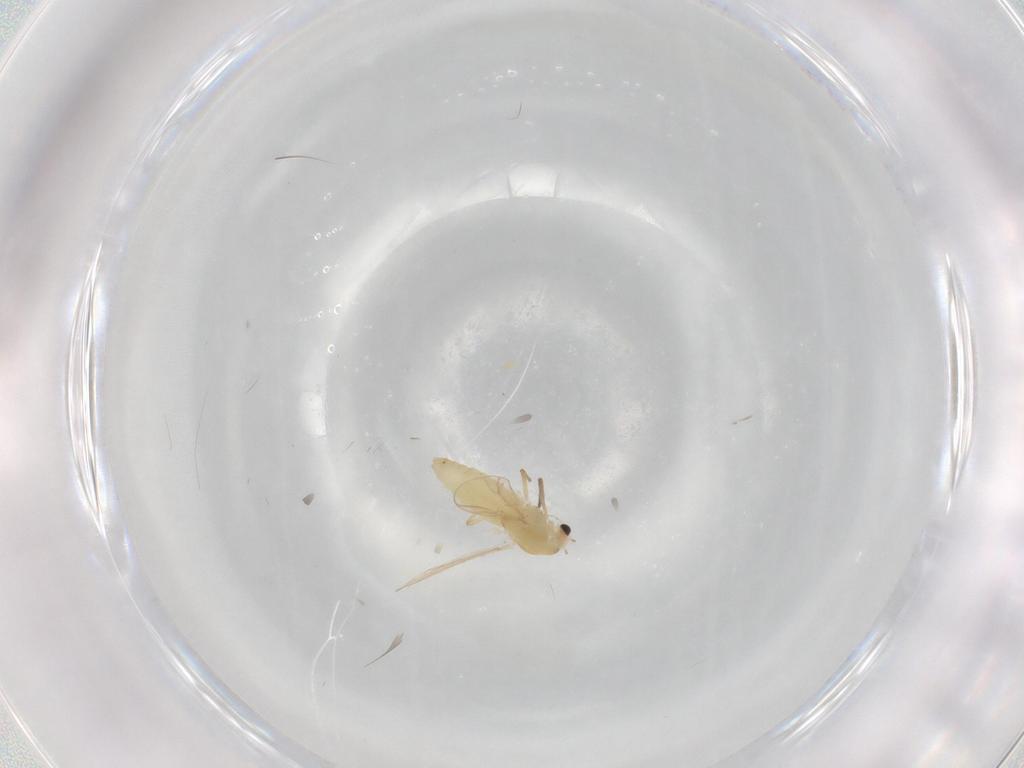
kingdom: Animalia
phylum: Arthropoda
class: Insecta
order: Diptera
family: Chironomidae
